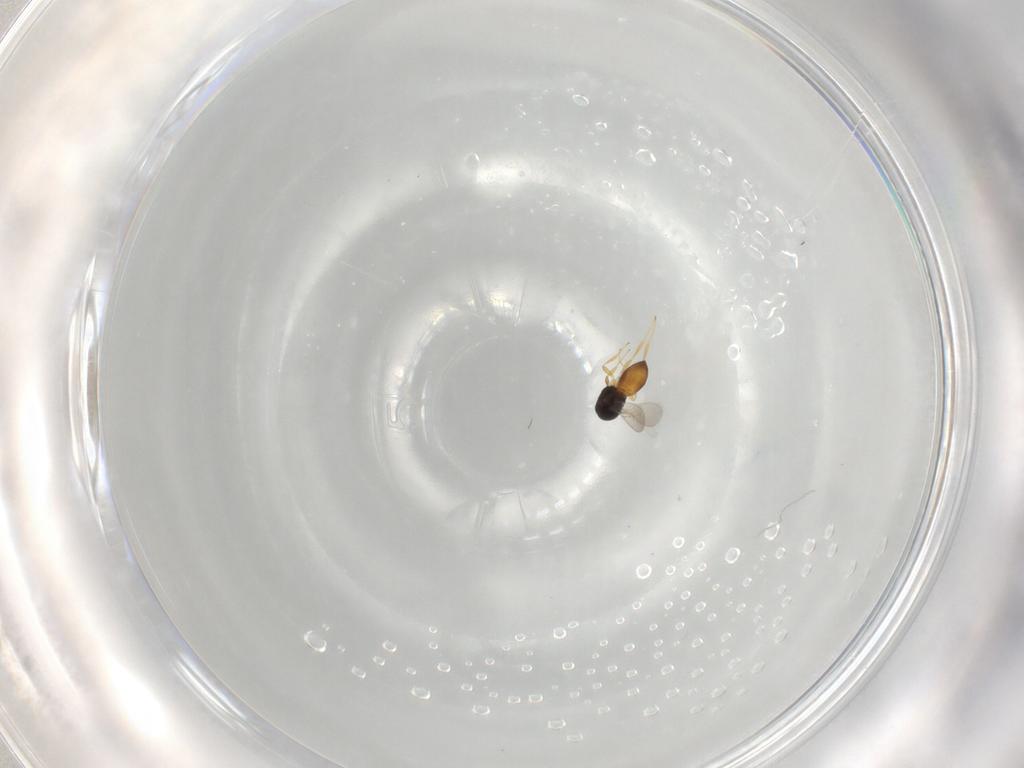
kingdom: Animalia
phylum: Arthropoda
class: Insecta
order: Hymenoptera
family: Scelionidae
